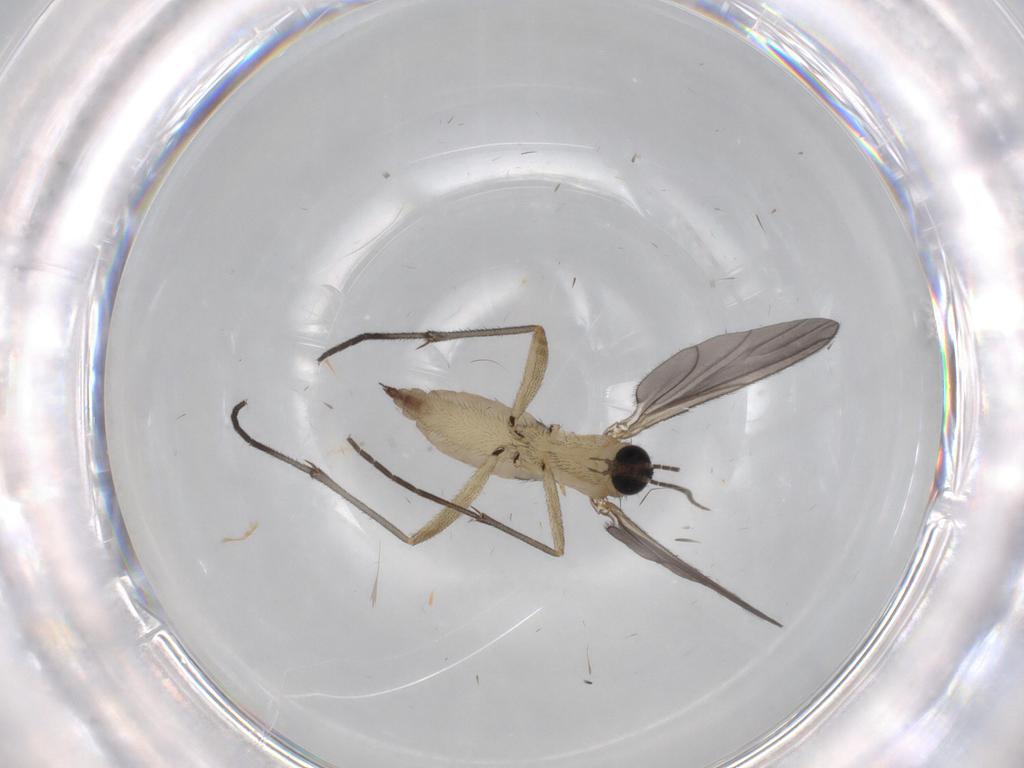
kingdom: Animalia
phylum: Arthropoda
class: Insecta
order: Diptera
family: Sciaridae
